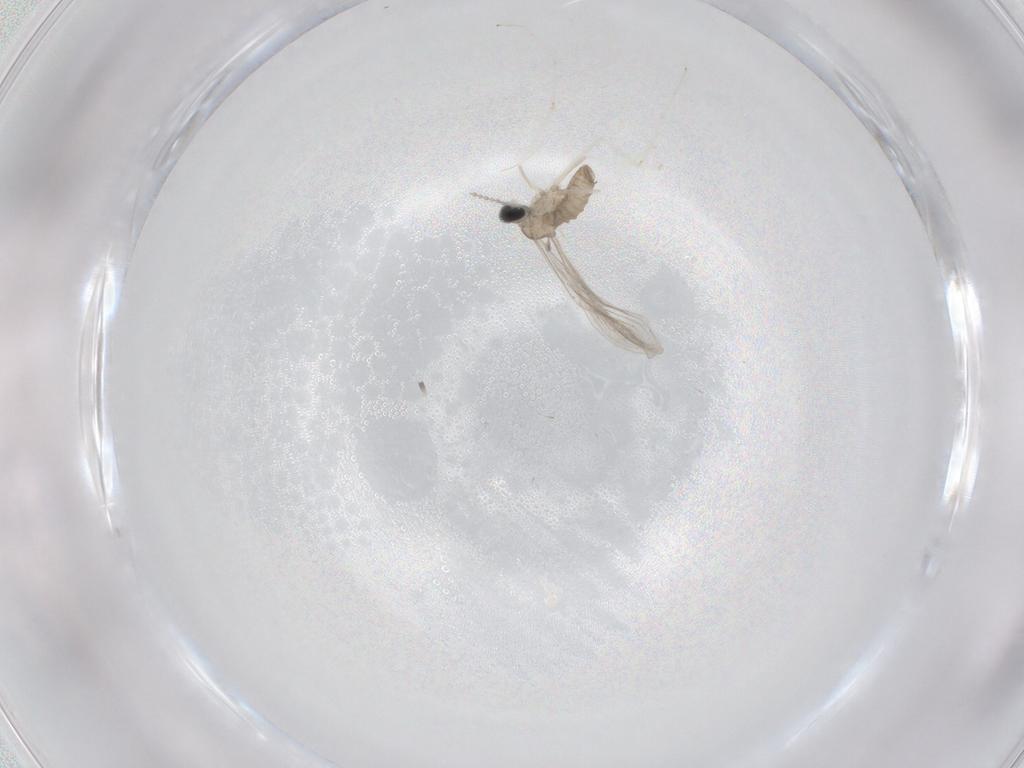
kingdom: Animalia
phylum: Arthropoda
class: Insecta
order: Diptera
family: Cecidomyiidae
